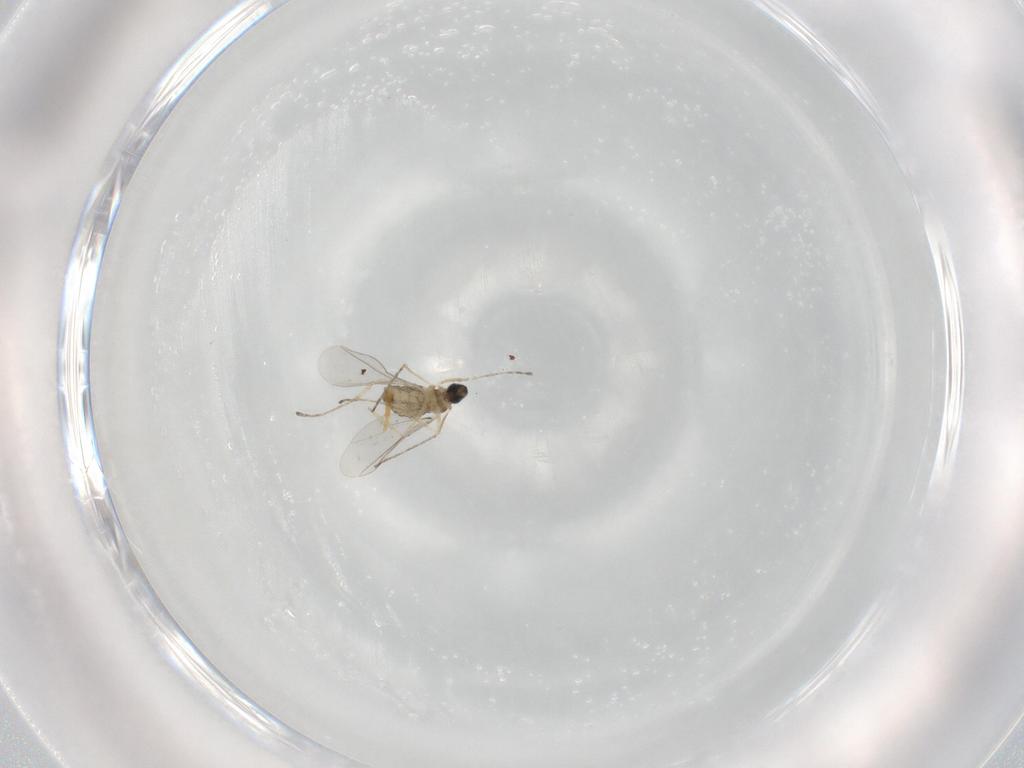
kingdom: Animalia
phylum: Arthropoda
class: Insecta
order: Diptera
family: Cecidomyiidae
